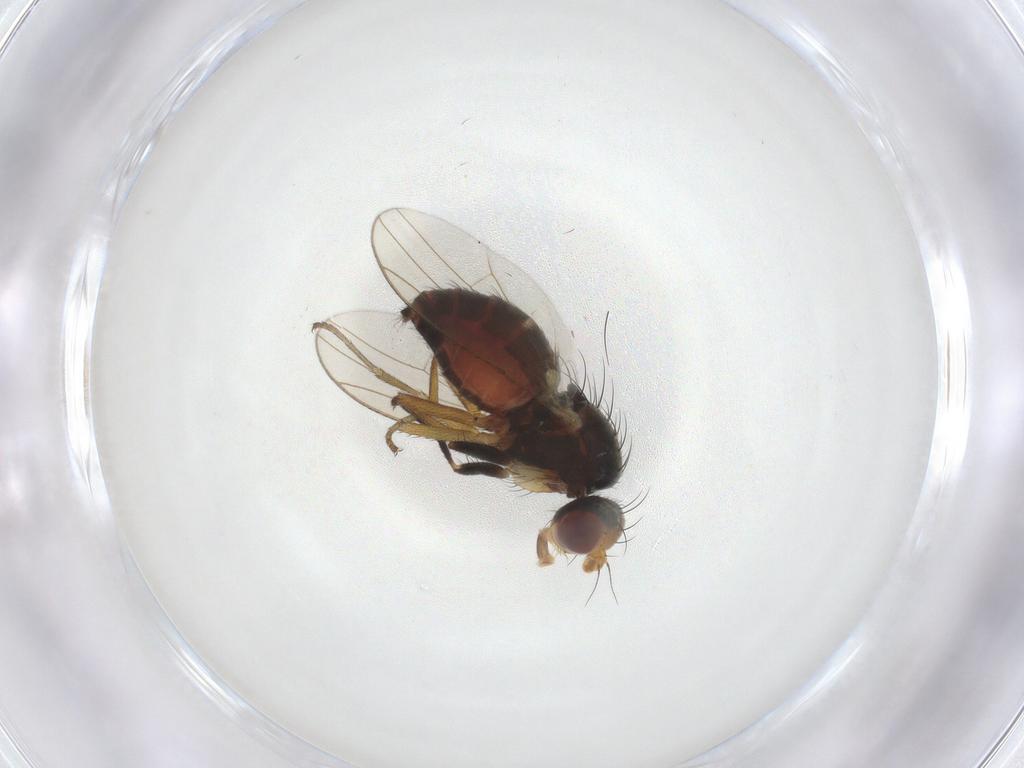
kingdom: Animalia
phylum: Arthropoda
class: Insecta
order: Diptera
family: Heleomyzidae
